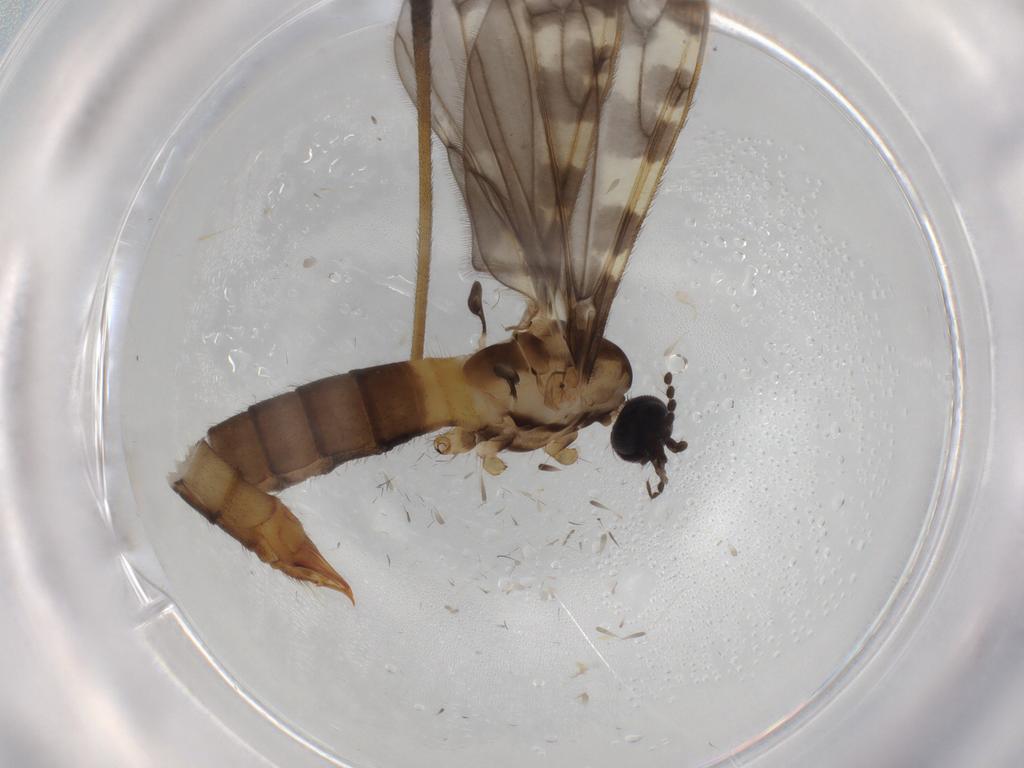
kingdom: Animalia
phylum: Arthropoda
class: Insecta
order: Diptera
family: Limoniidae
